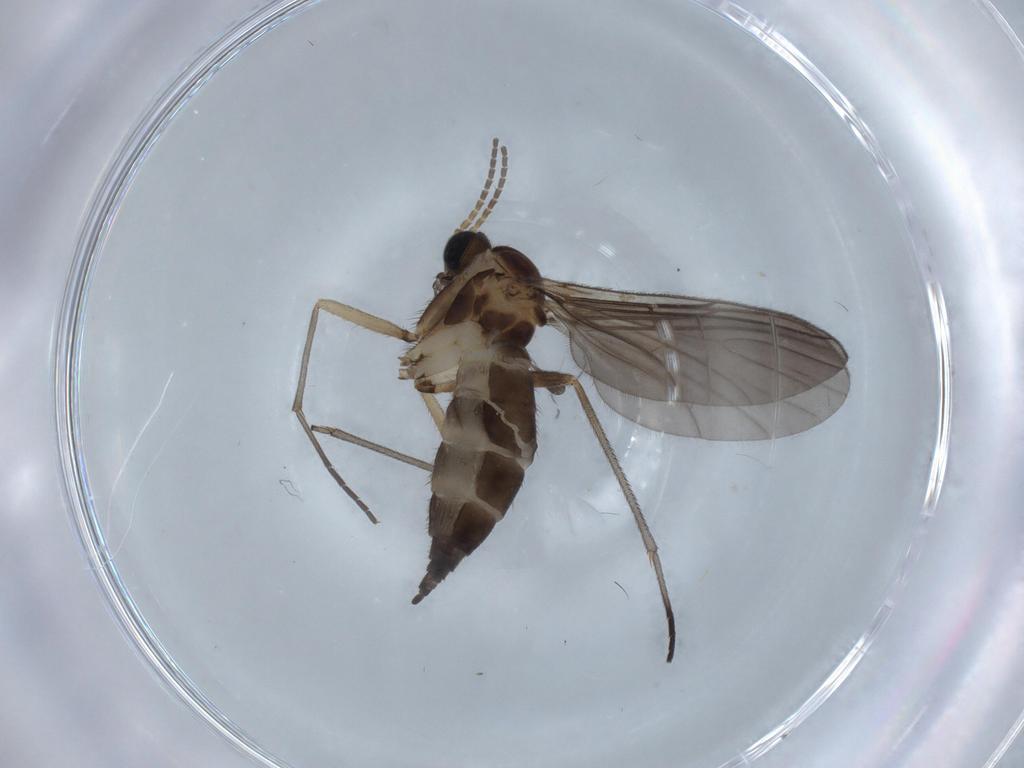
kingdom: Animalia
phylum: Arthropoda
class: Insecta
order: Diptera
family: Sciaridae
